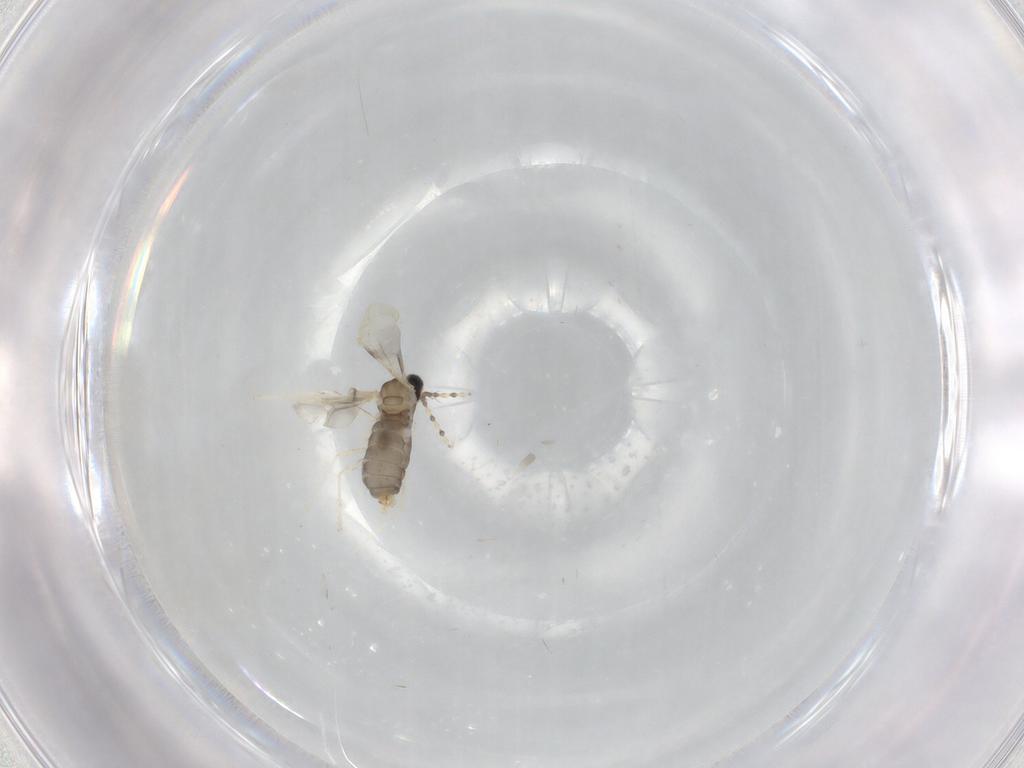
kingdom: Animalia
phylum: Arthropoda
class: Insecta
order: Diptera
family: Cecidomyiidae
